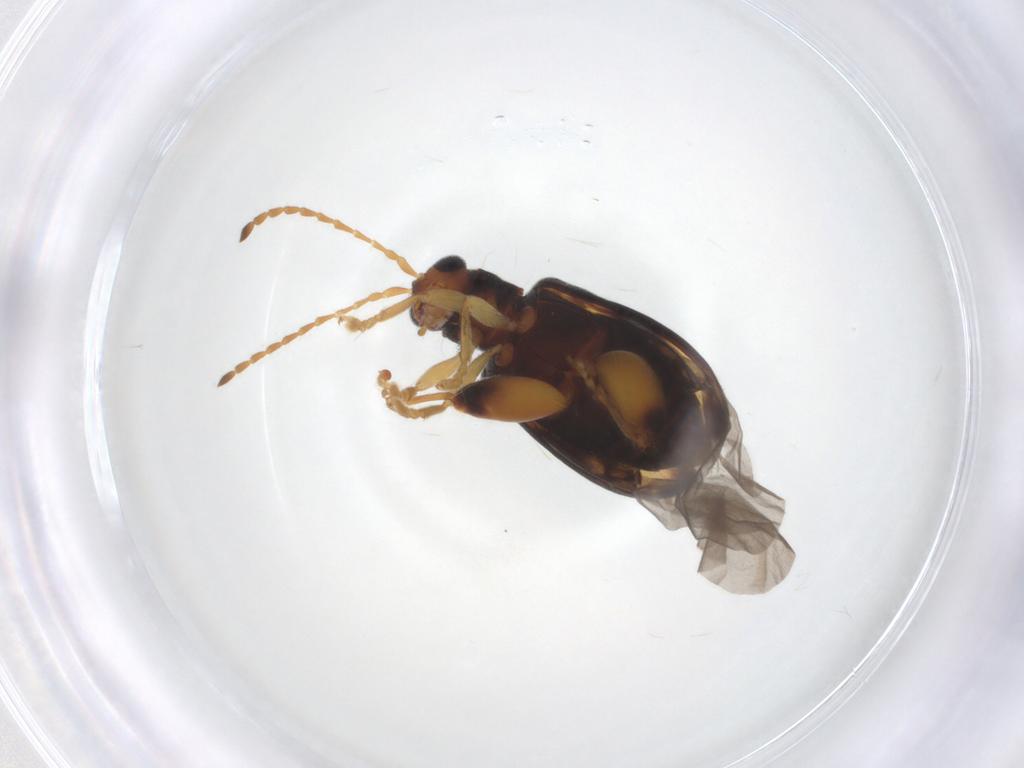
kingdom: Animalia
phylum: Arthropoda
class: Insecta
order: Coleoptera
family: Chrysomelidae
